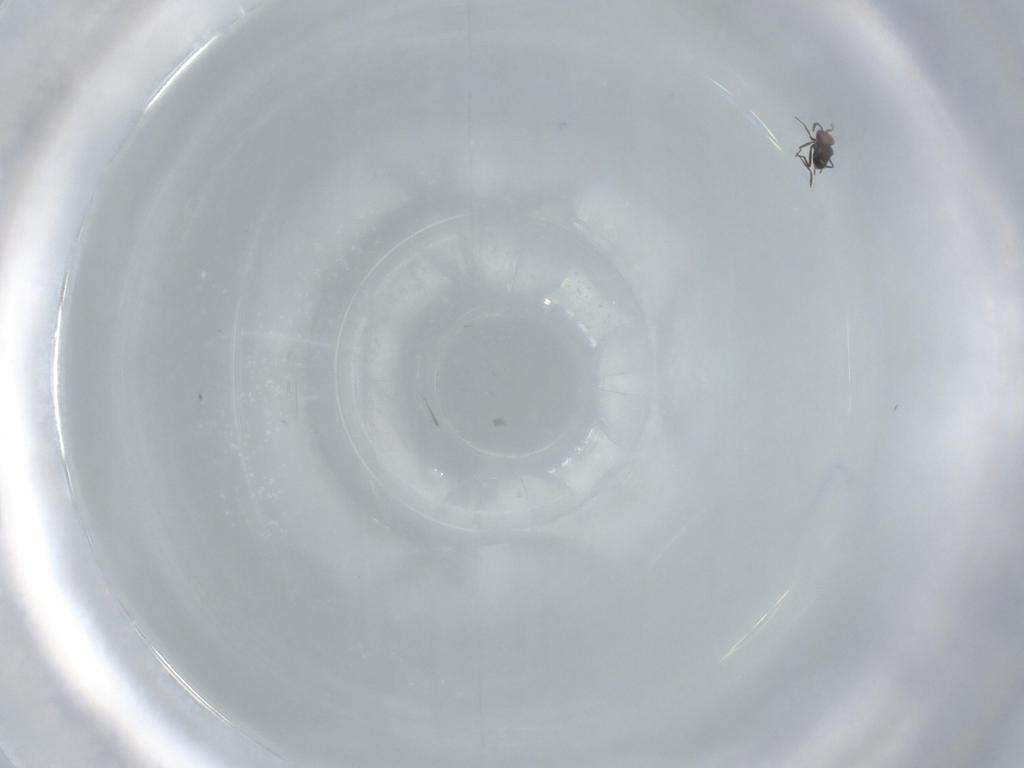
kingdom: Animalia
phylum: Arthropoda
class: Insecta
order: Hymenoptera
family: Trichogrammatidae
